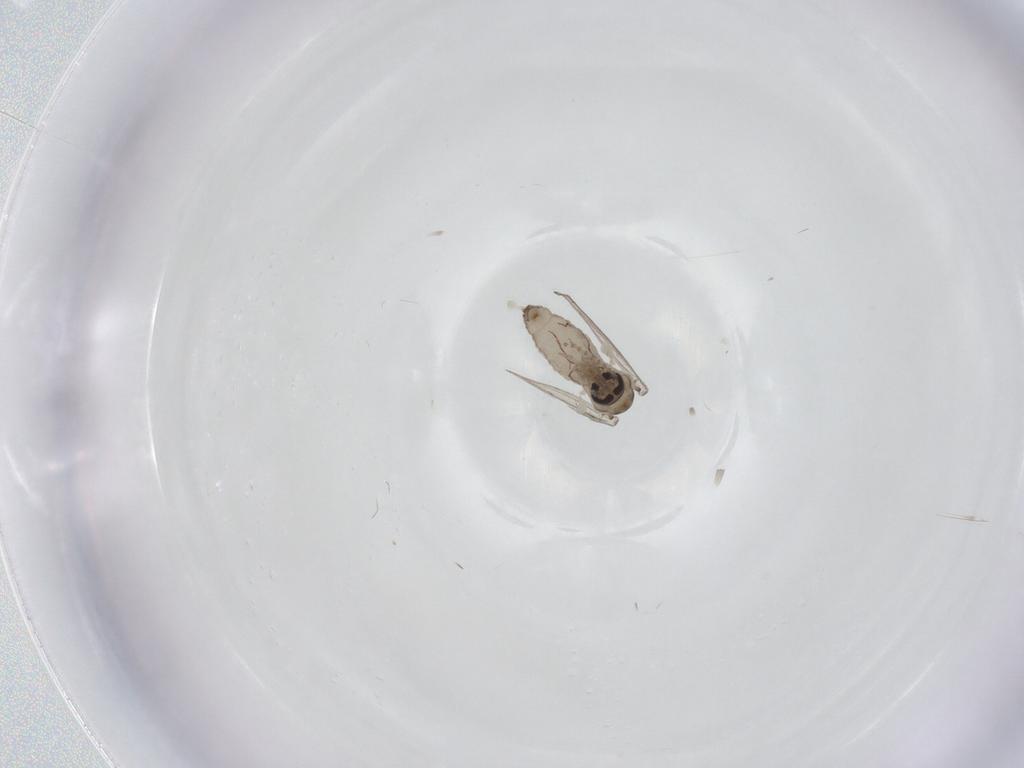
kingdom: Animalia
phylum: Arthropoda
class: Insecta
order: Diptera
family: Psychodidae
